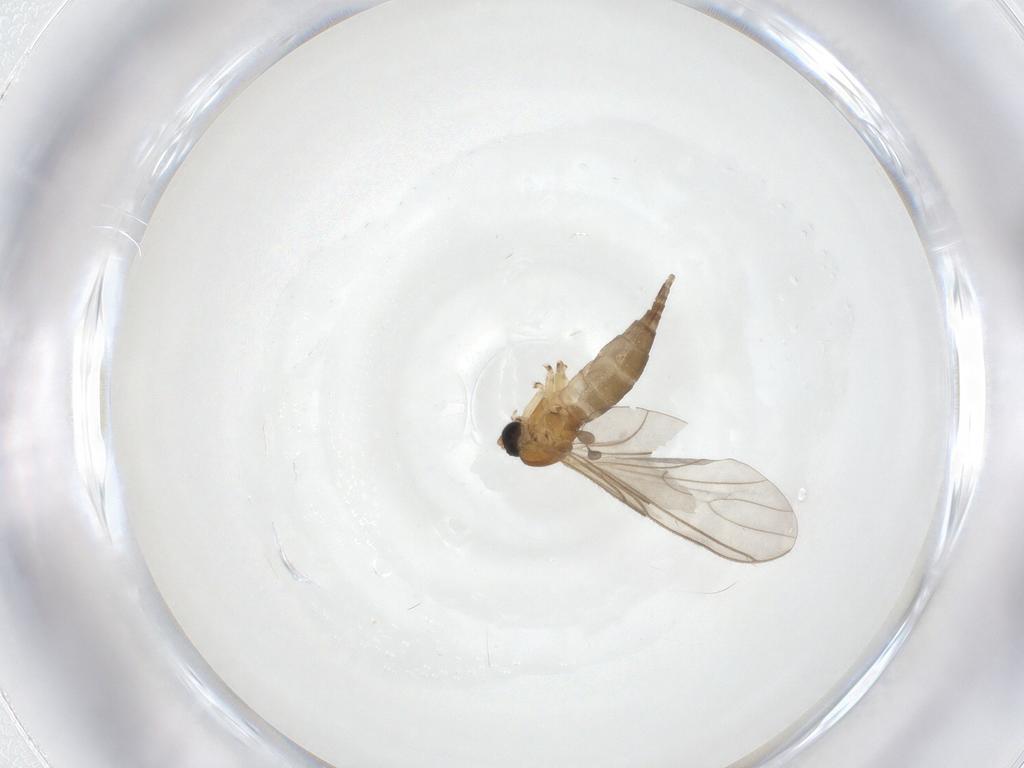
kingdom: Animalia
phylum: Arthropoda
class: Insecta
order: Diptera
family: Sciaridae
